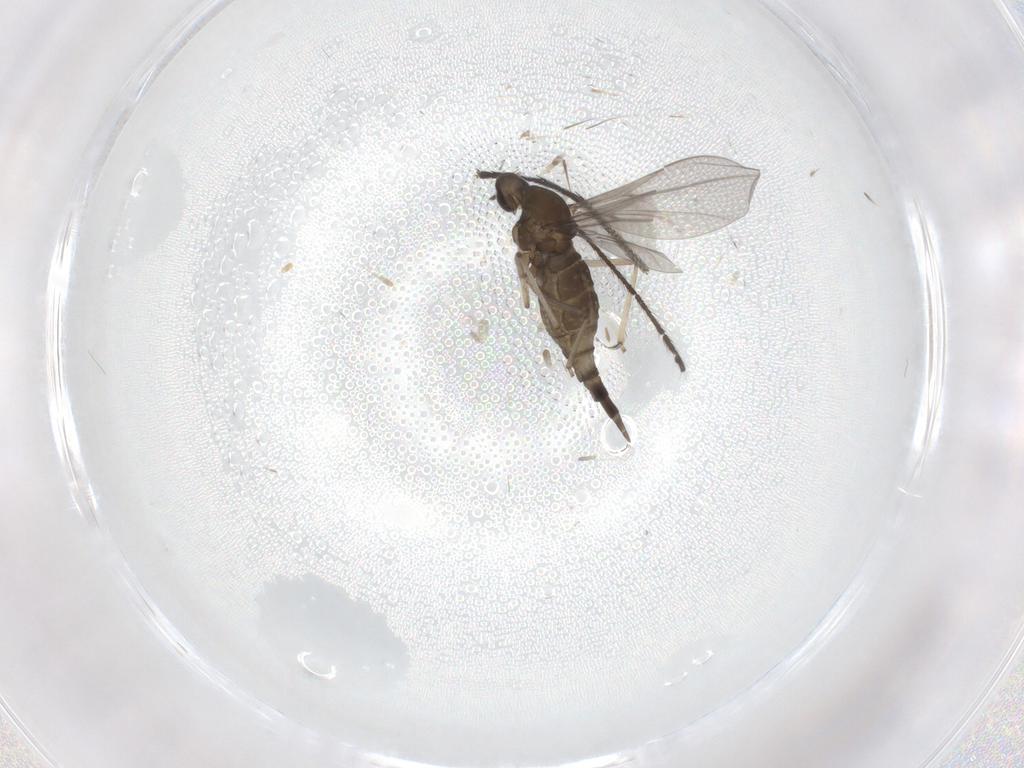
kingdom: Animalia
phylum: Arthropoda
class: Insecta
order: Diptera
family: Cecidomyiidae
